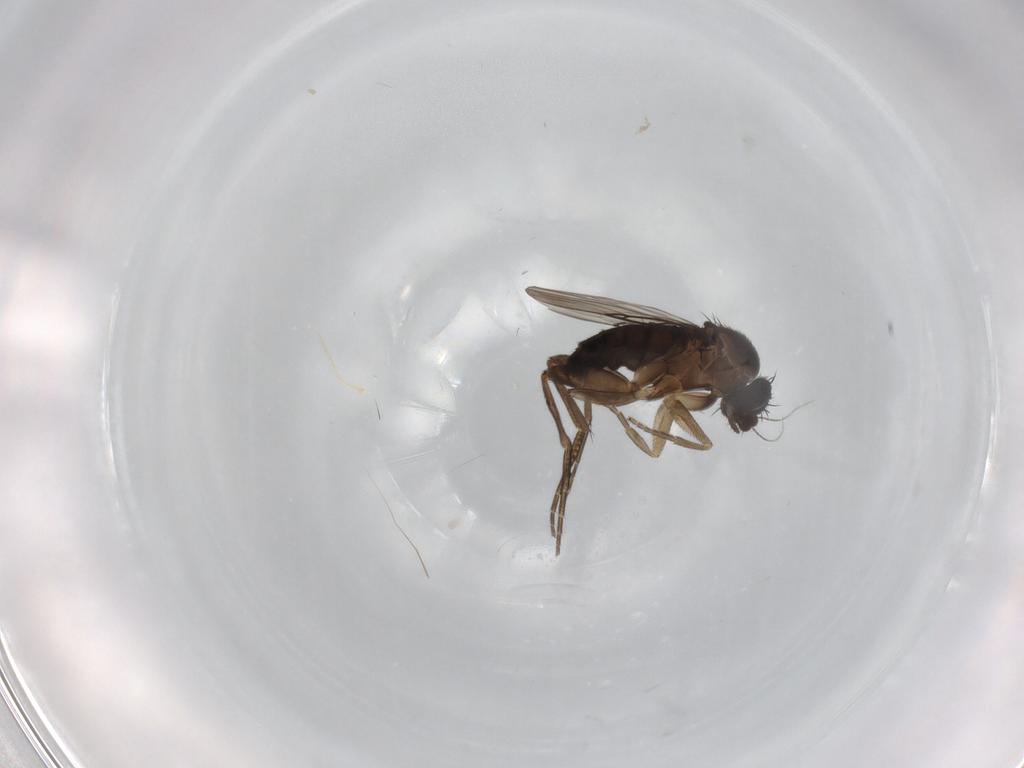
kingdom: Animalia
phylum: Arthropoda
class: Insecta
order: Diptera
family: Phoridae
